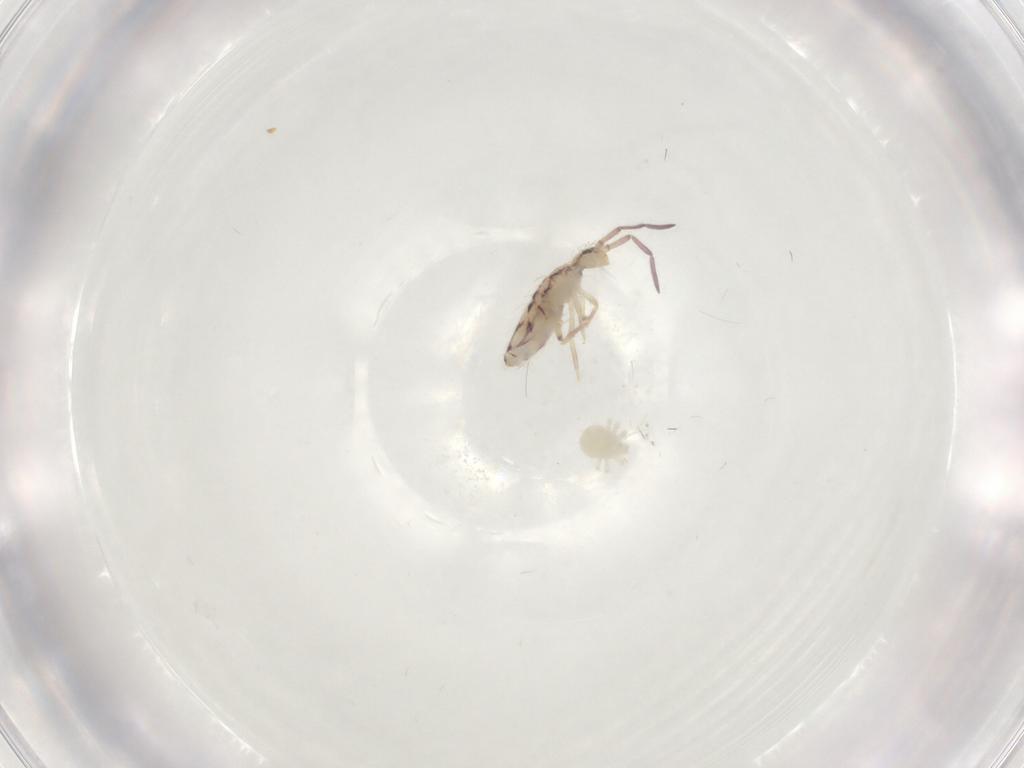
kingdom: Animalia
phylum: Arthropoda
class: Collembola
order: Entomobryomorpha
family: Entomobryidae
